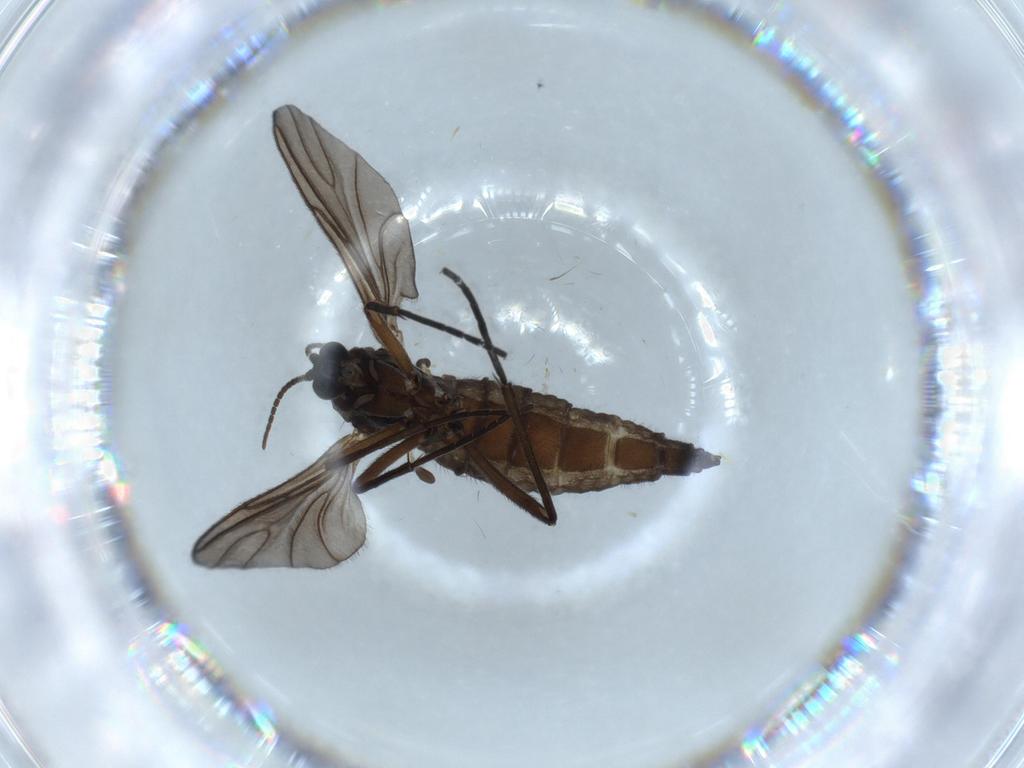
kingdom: Animalia
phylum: Arthropoda
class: Insecta
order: Diptera
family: Sciaridae
